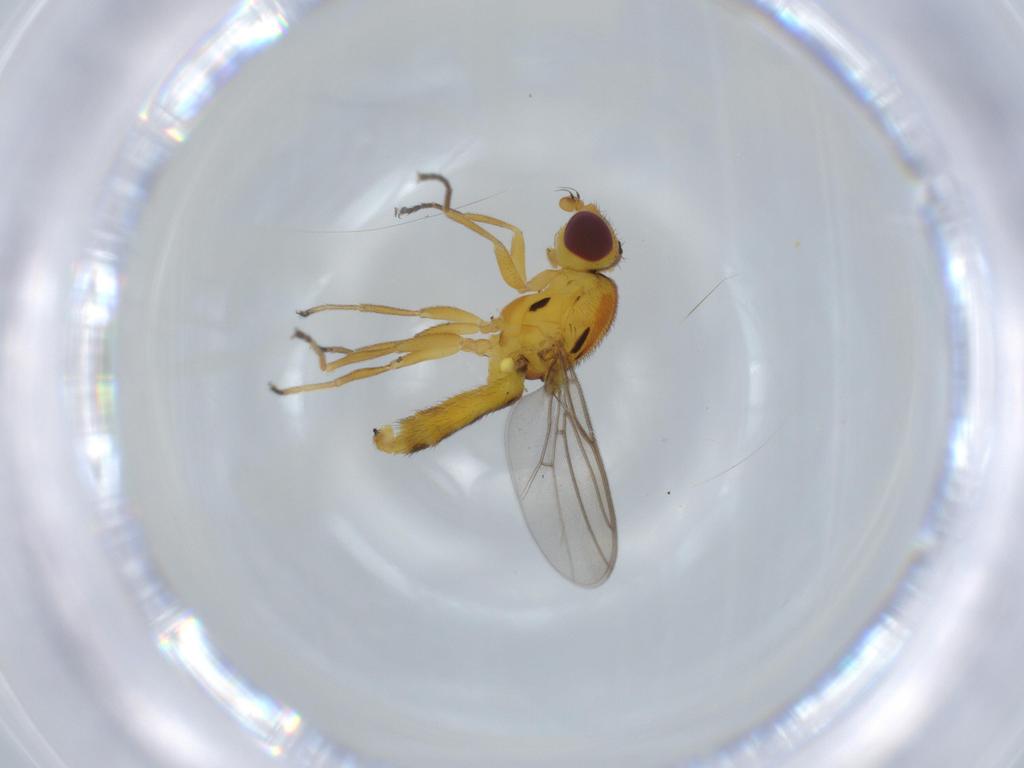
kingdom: Animalia
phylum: Arthropoda
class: Insecta
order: Diptera
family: Chloropidae
